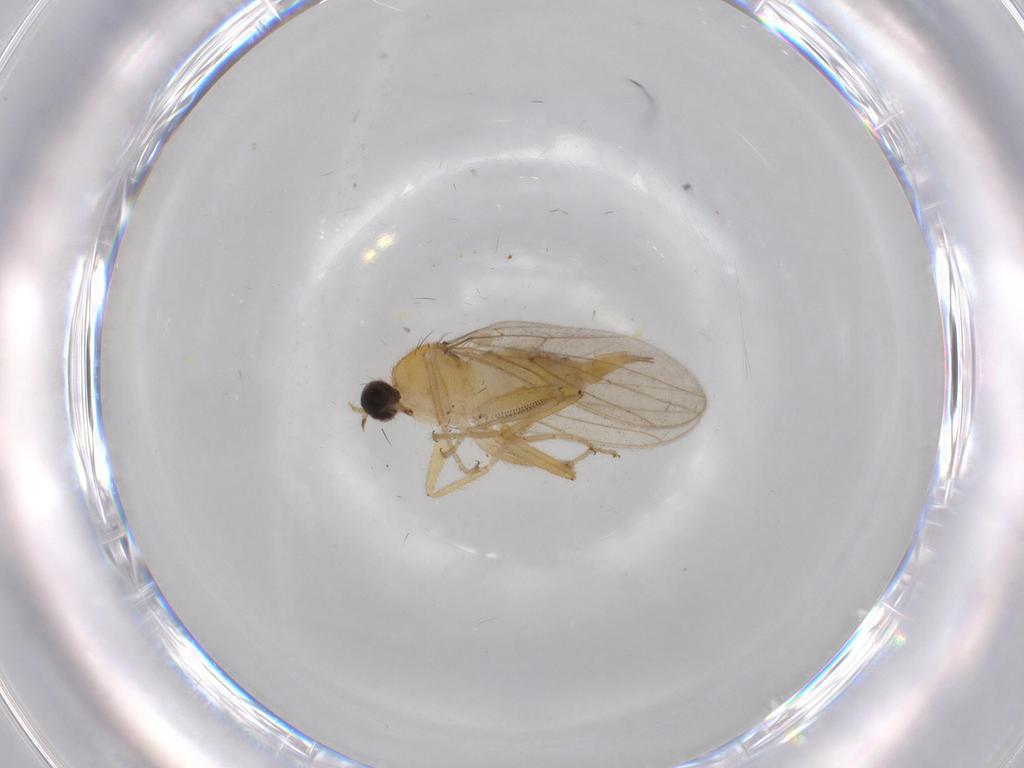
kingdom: Animalia
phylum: Arthropoda
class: Insecta
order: Diptera
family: Hybotidae
